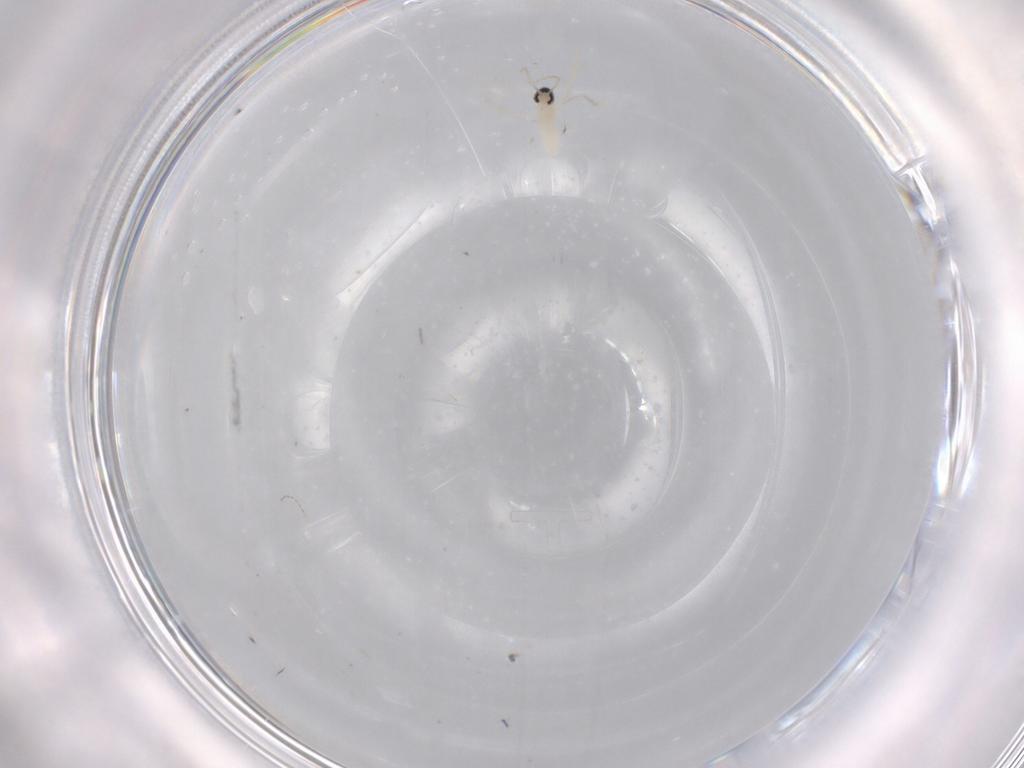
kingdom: Animalia
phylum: Arthropoda
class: Insecta
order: Diptera
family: Cecidomyiidae
